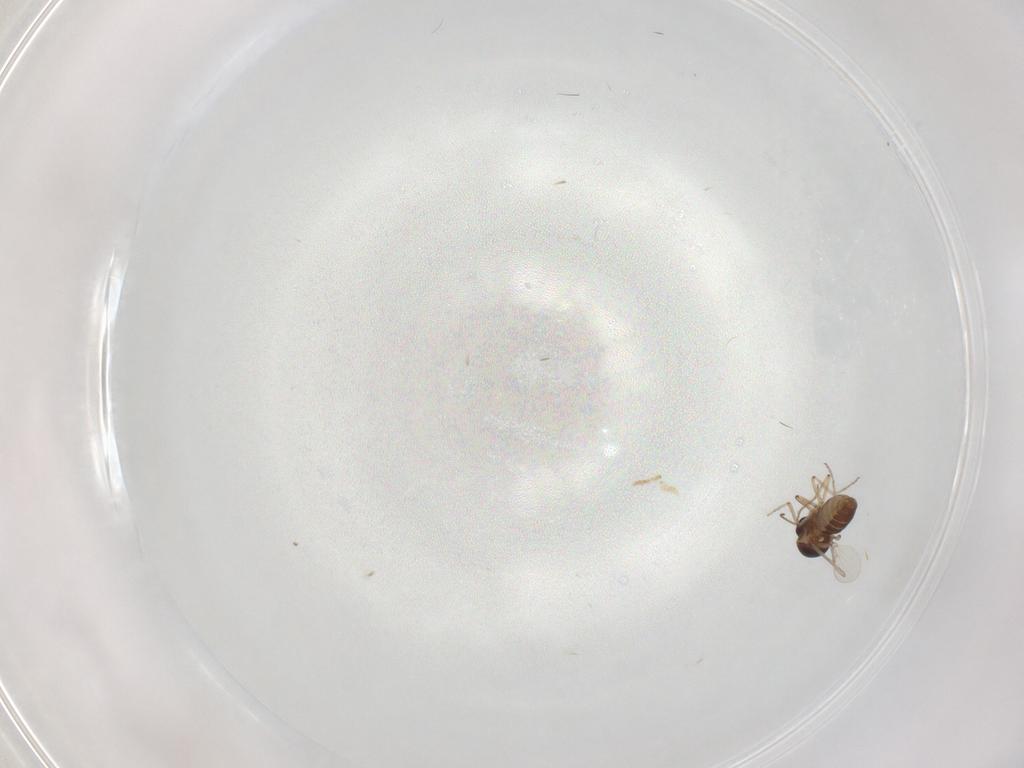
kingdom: Animalia
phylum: Arthropoda
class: Insecta
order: Diptera
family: Ceratopogonidae
